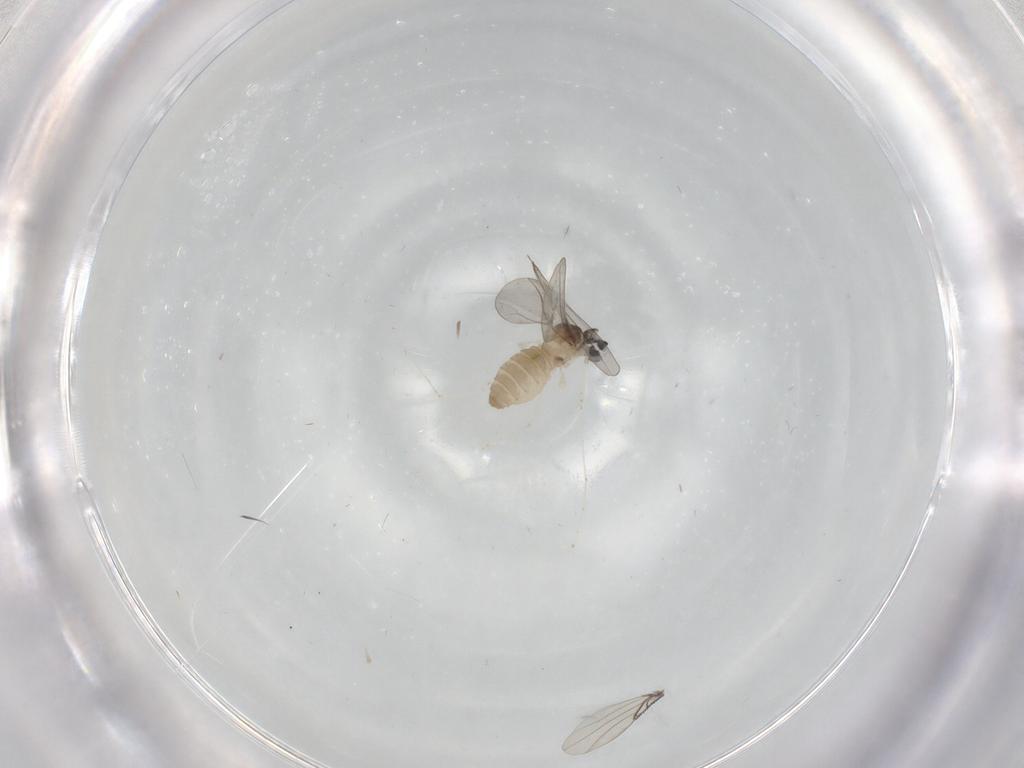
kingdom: Animalia
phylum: Arthropoda
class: Insecta
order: Diptera
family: Cecidomyiidae
